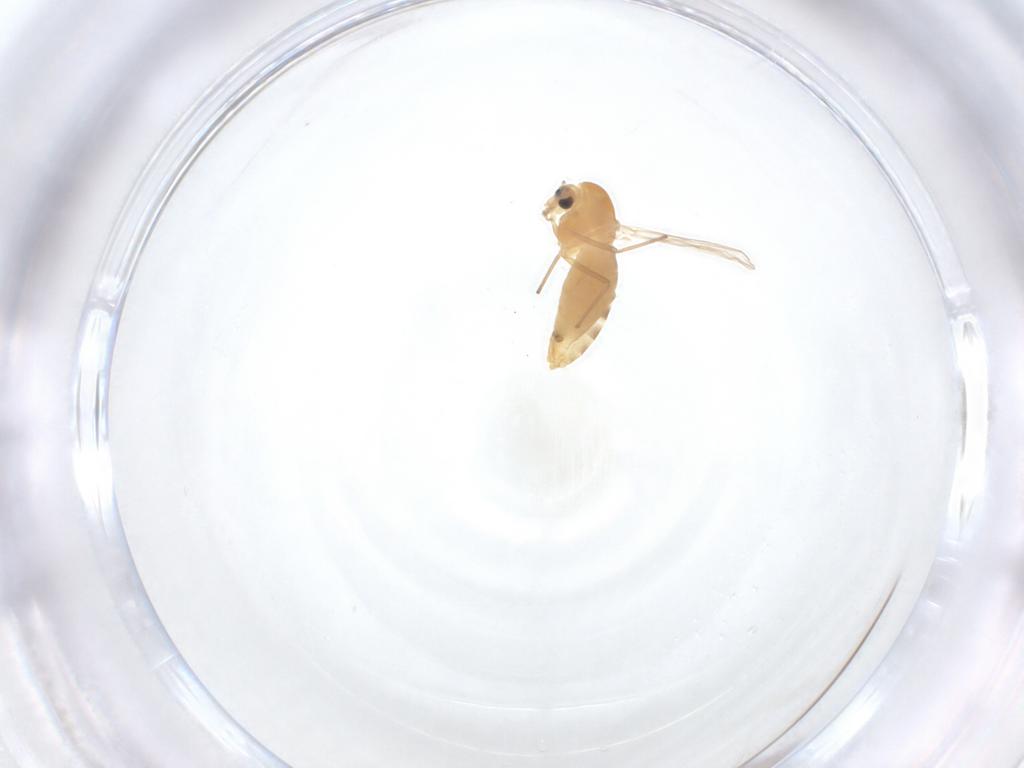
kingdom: Animalia
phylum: Arthropoda
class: Insecta
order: Diptera
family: Chironomidae
